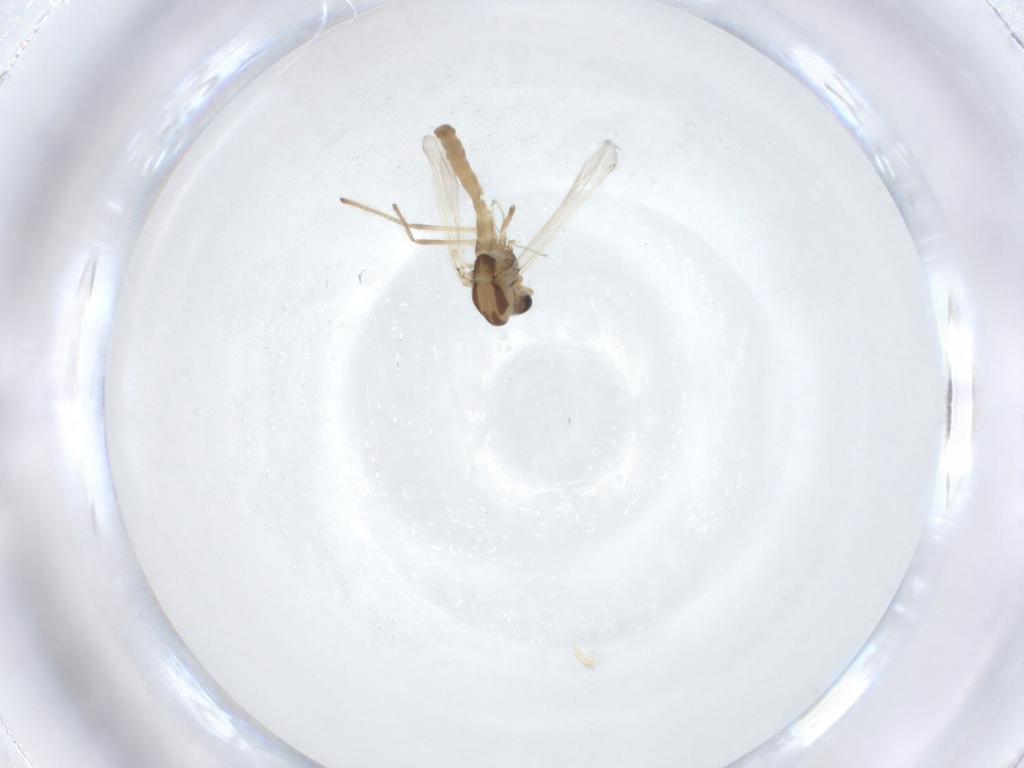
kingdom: Animalia
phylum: Arthropoda
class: Insecta
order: Diptera
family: Chironomidae
